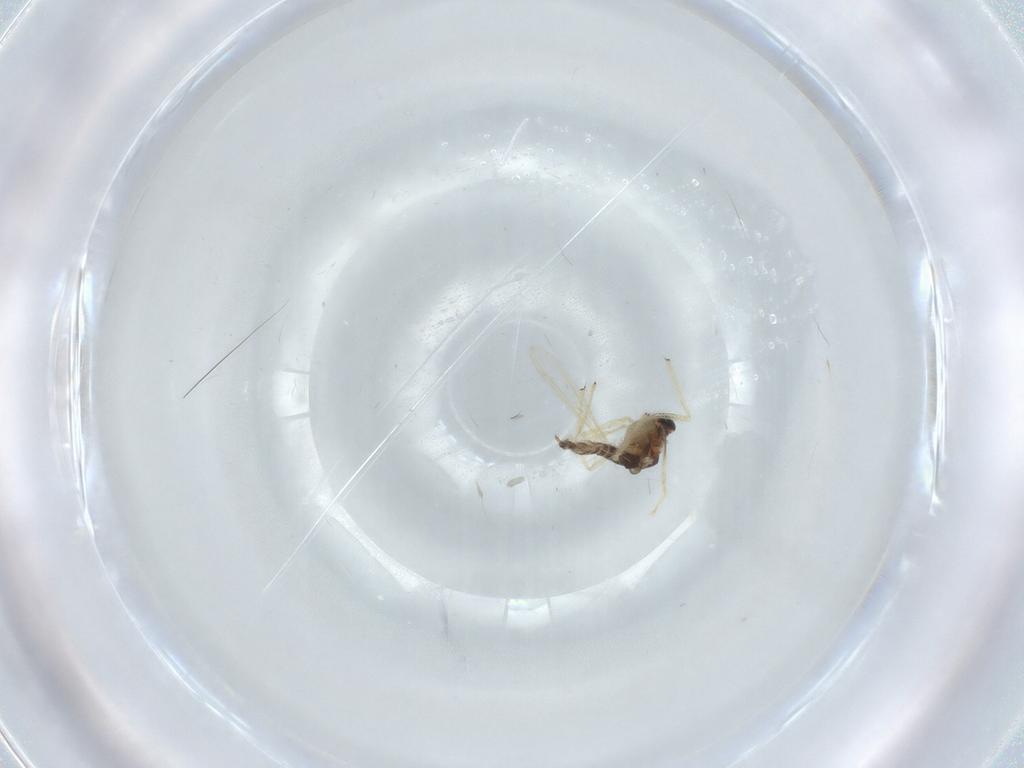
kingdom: Animalia
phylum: Arthropoda
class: Insecta
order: Diptera
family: Chironomidae
